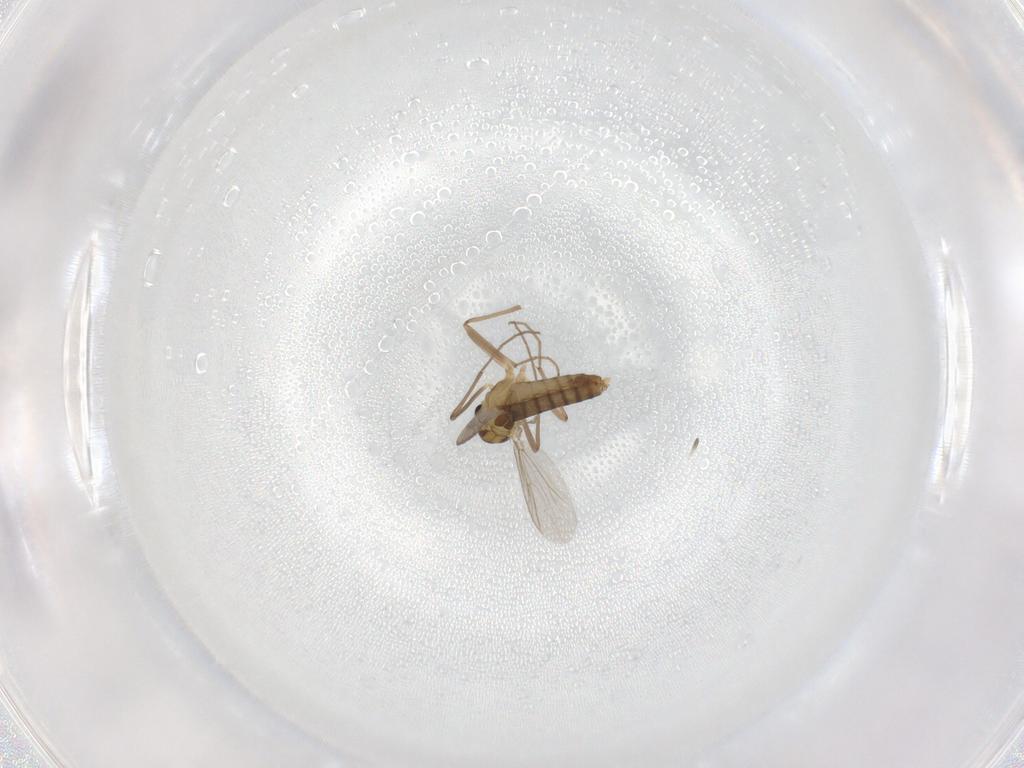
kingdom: Animalia
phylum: Arthropoda
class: Insecta
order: Diptera
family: Chironomidae
